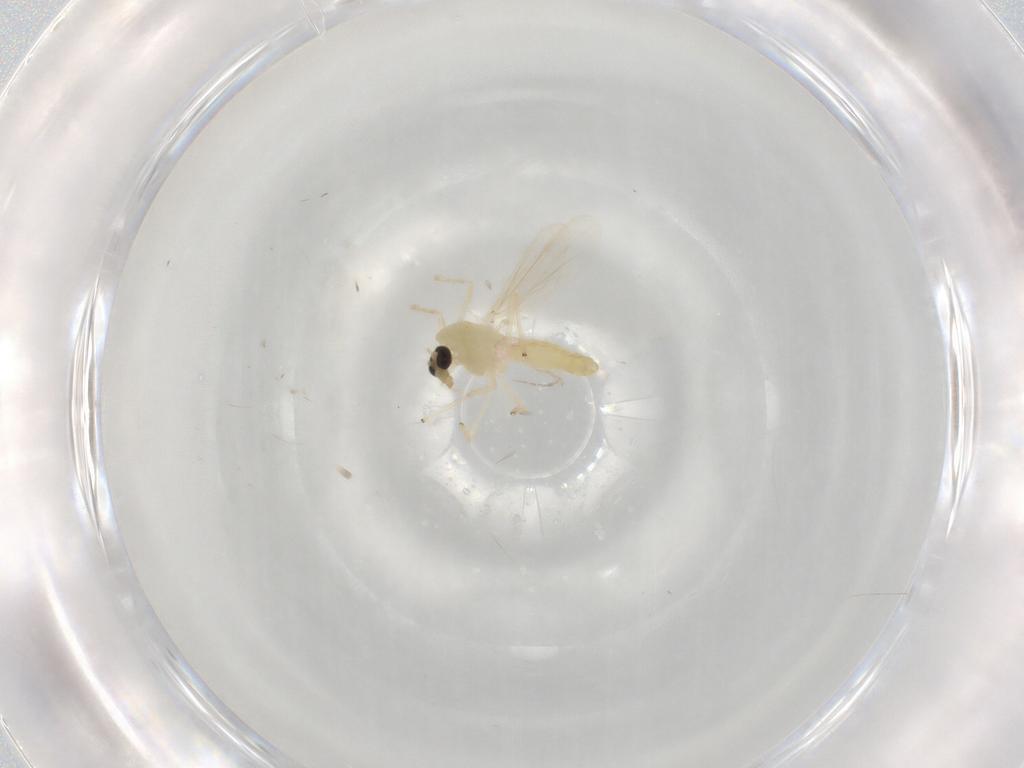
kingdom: Animalia
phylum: Arthropoda
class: Insecta
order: Diptera
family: Chironomidae
